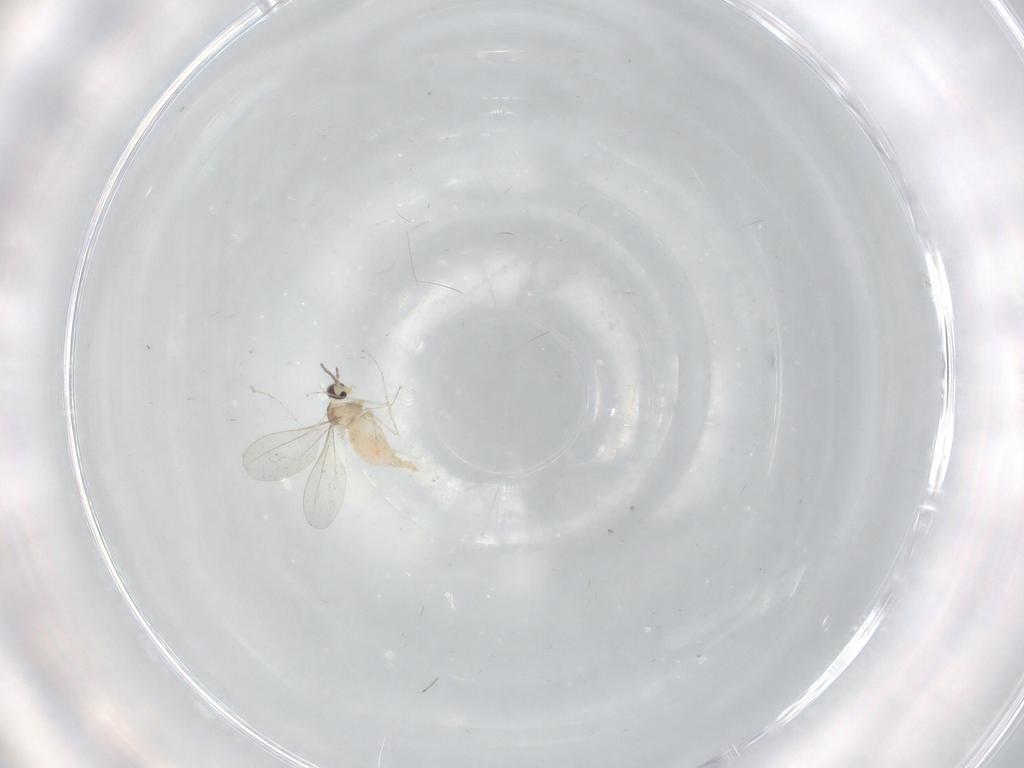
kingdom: Animalia
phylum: Arthropoda
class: Insecta
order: Diptera
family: Cecidomyiidae
